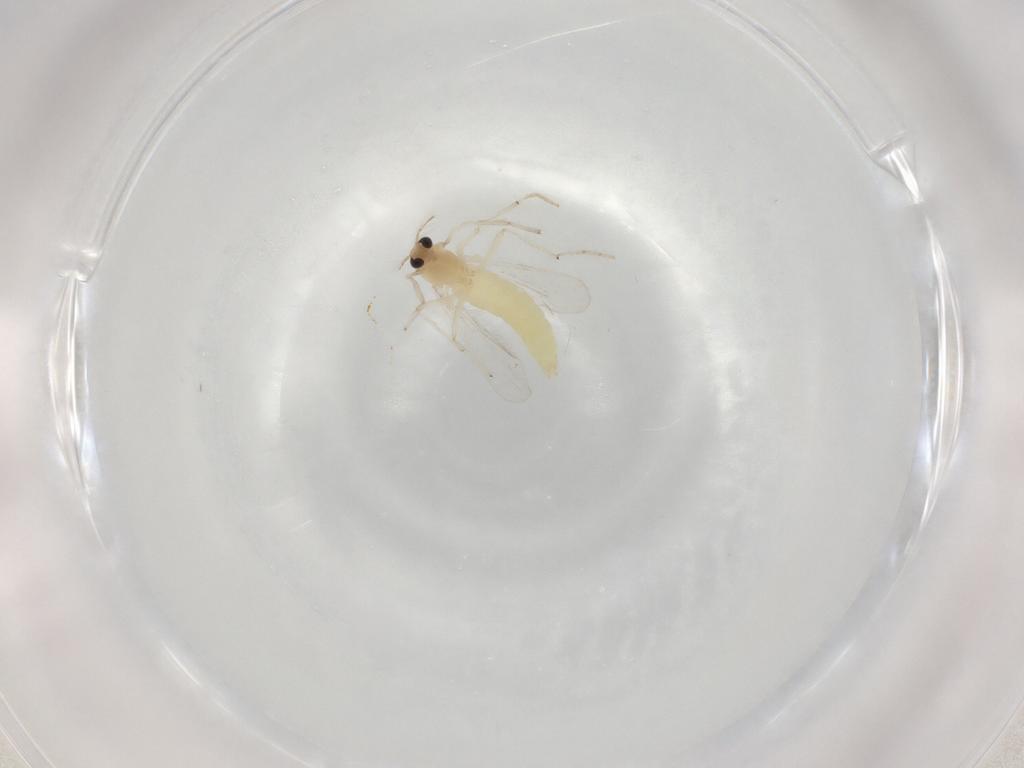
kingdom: Animalia
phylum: Arthropoda
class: Insecta
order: Diptera
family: Chironomidae
